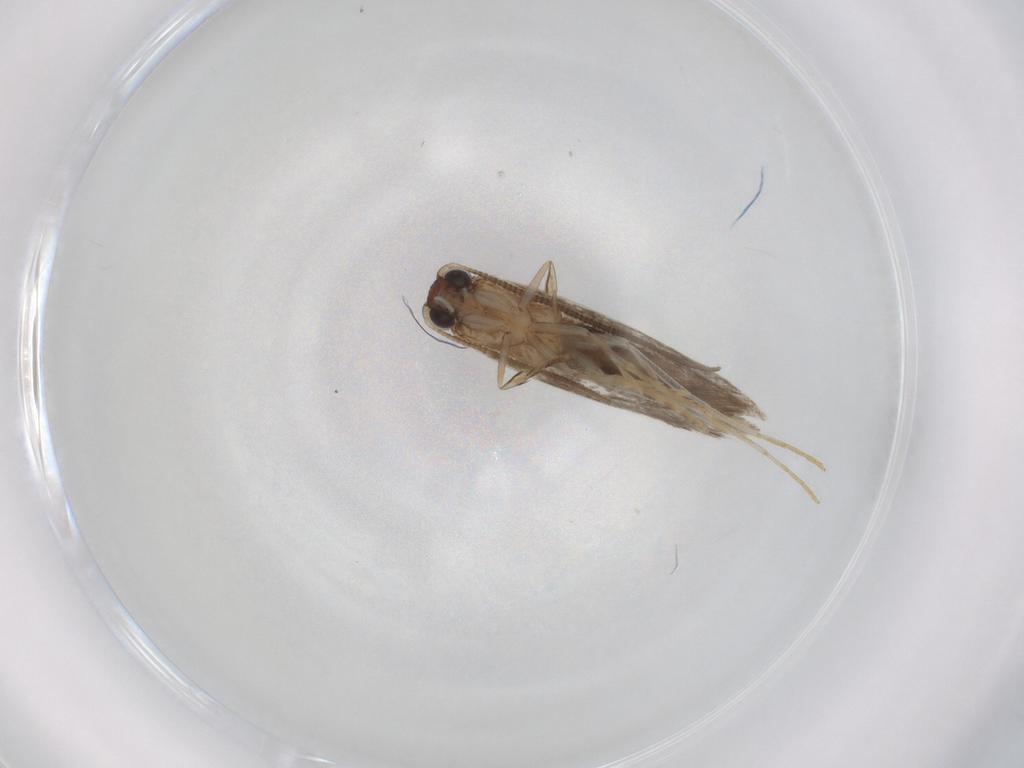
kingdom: Animalia
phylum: Arthropoda
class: Insecta
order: Lepidoptera
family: Tineidae
